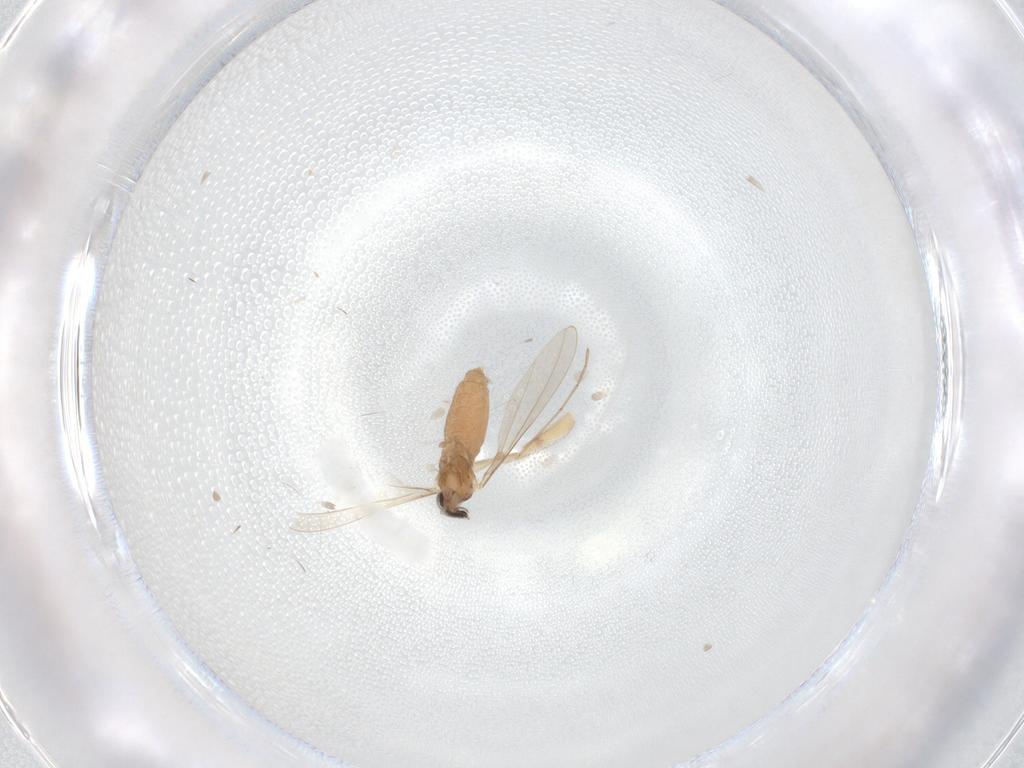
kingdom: Animalia
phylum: Arthropoda
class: Insecta
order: Diptera
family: Cecidomyiidae
